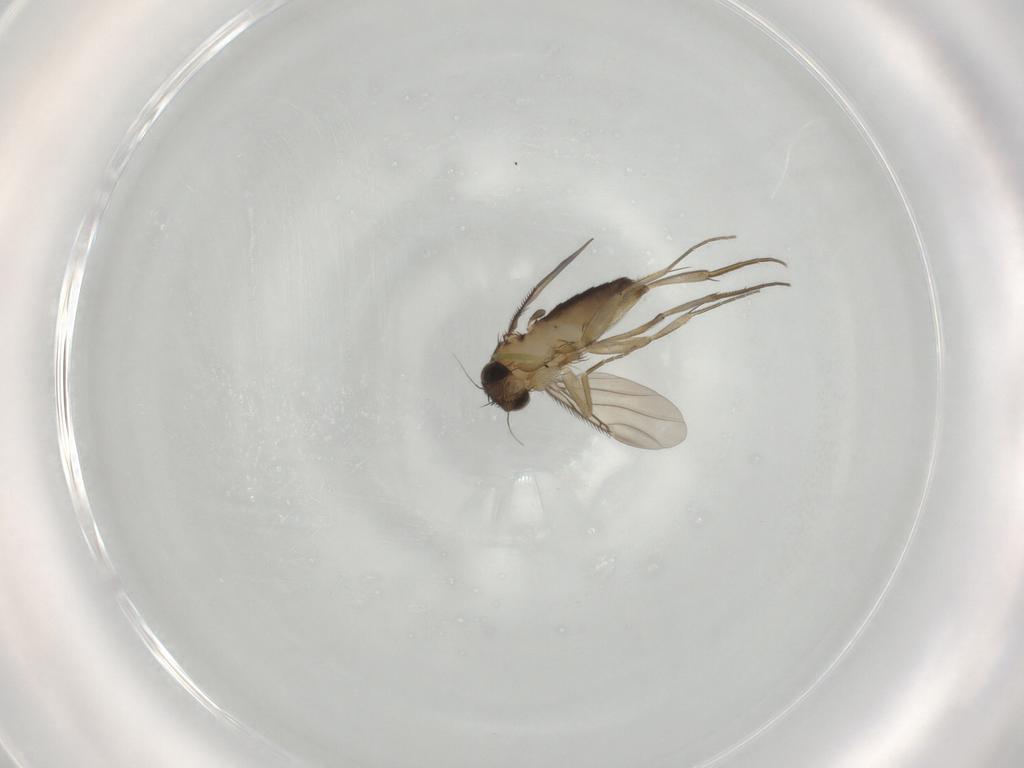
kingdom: Animalia
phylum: Arthropoda
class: Insecta
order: Diptera
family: Phoridae
